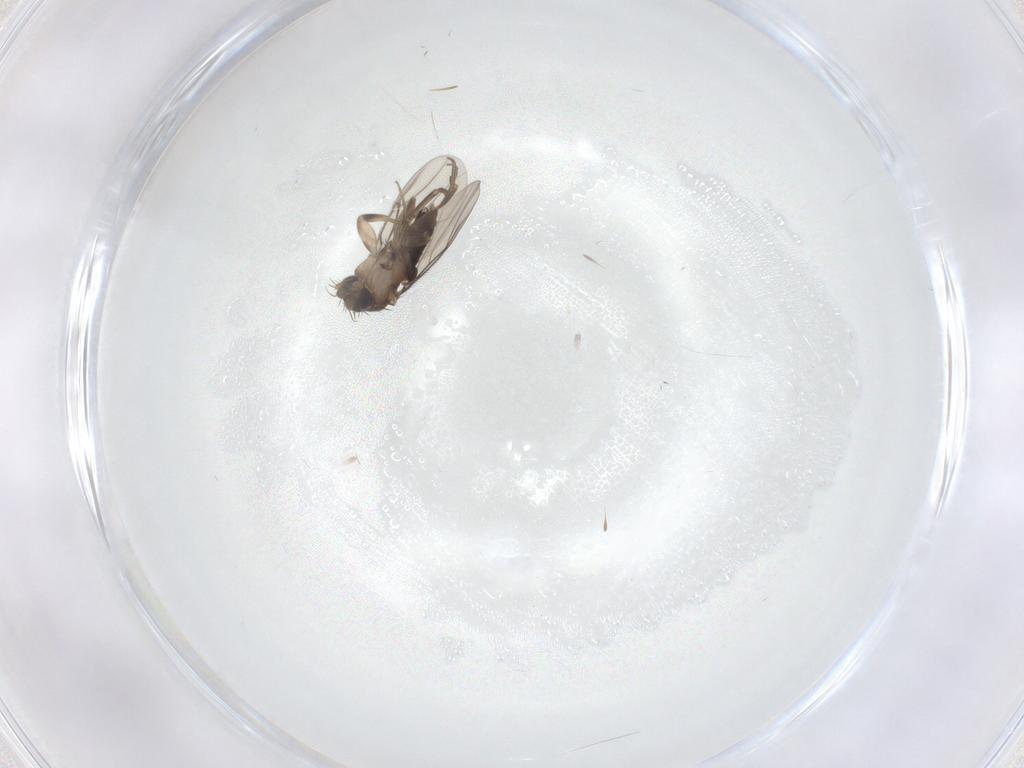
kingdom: Animalia
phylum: Arthropoda
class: Insecta
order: Diptera
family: Phoridae
